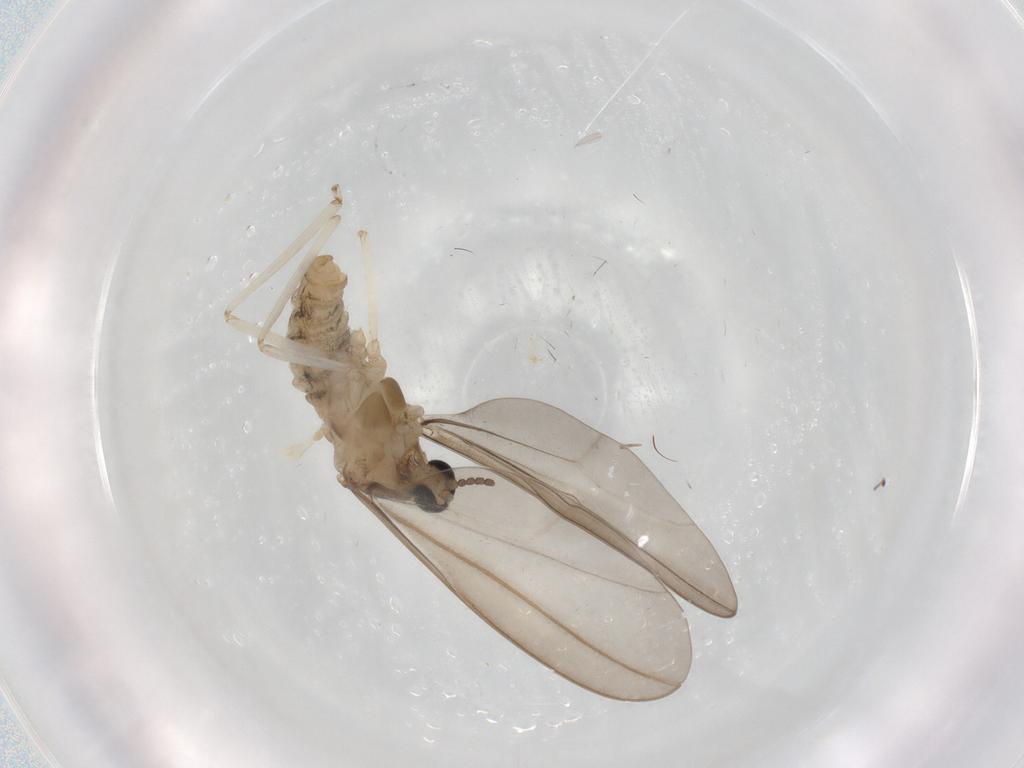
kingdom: Animalia
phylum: Arthropoda
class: Insecta
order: Diptera
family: Cecidomyiidae
